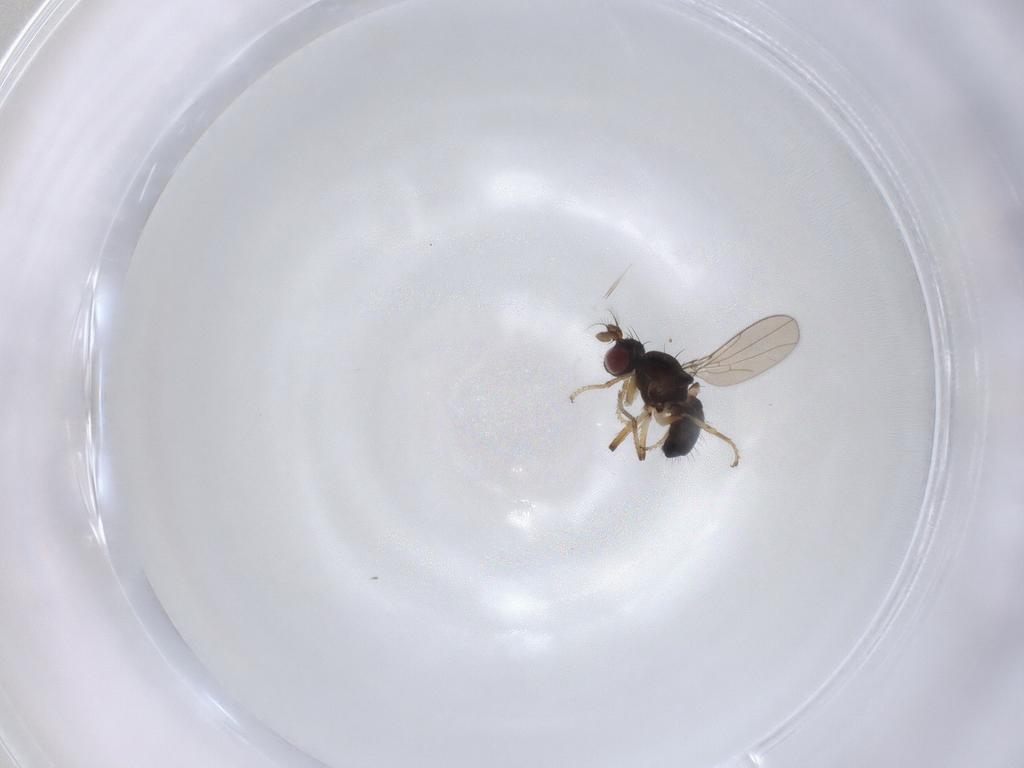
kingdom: Animalia
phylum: Arthropoda
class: Insecta
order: Diptera
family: Ephydridae
